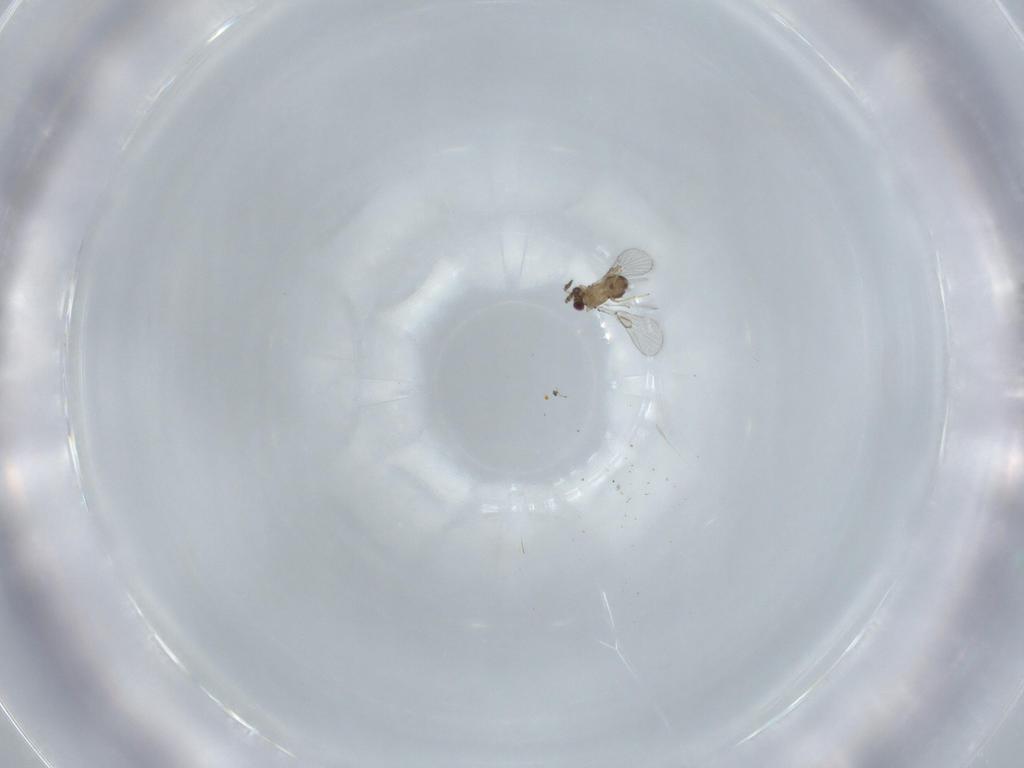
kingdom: Animalia
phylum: Arthropoda
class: Insecta
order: Hymenoptera
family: Trichogrammatidae
